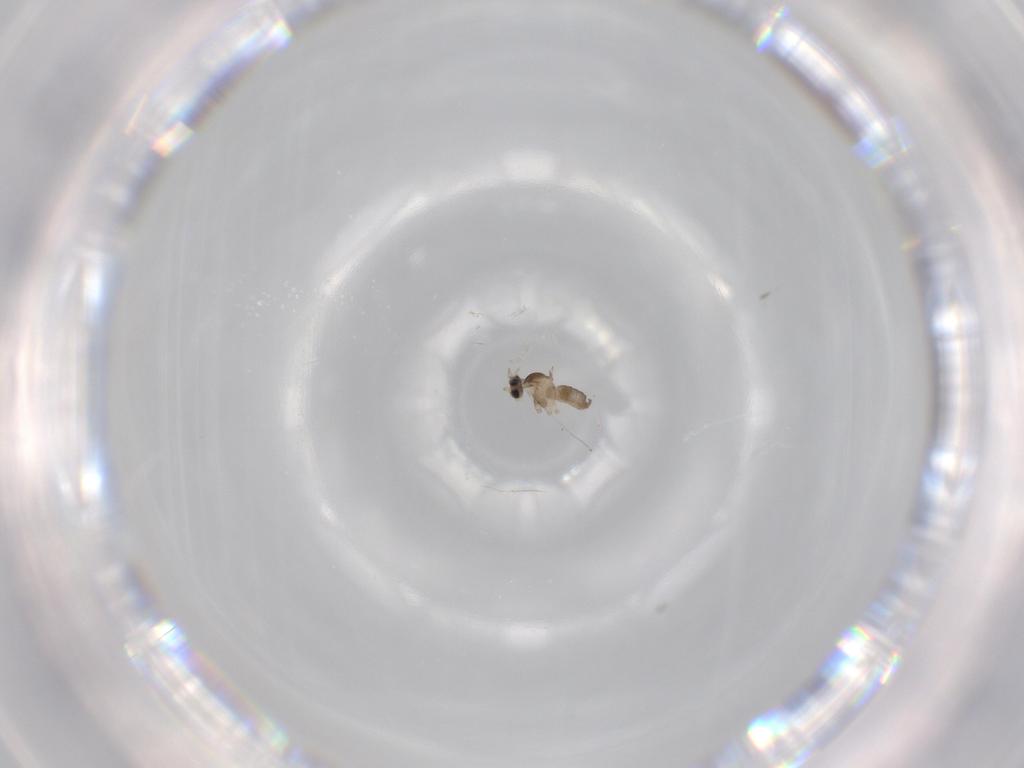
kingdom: Animalia
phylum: Arthropoda
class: Insecta
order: Diptera
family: Cecidomyiidae
